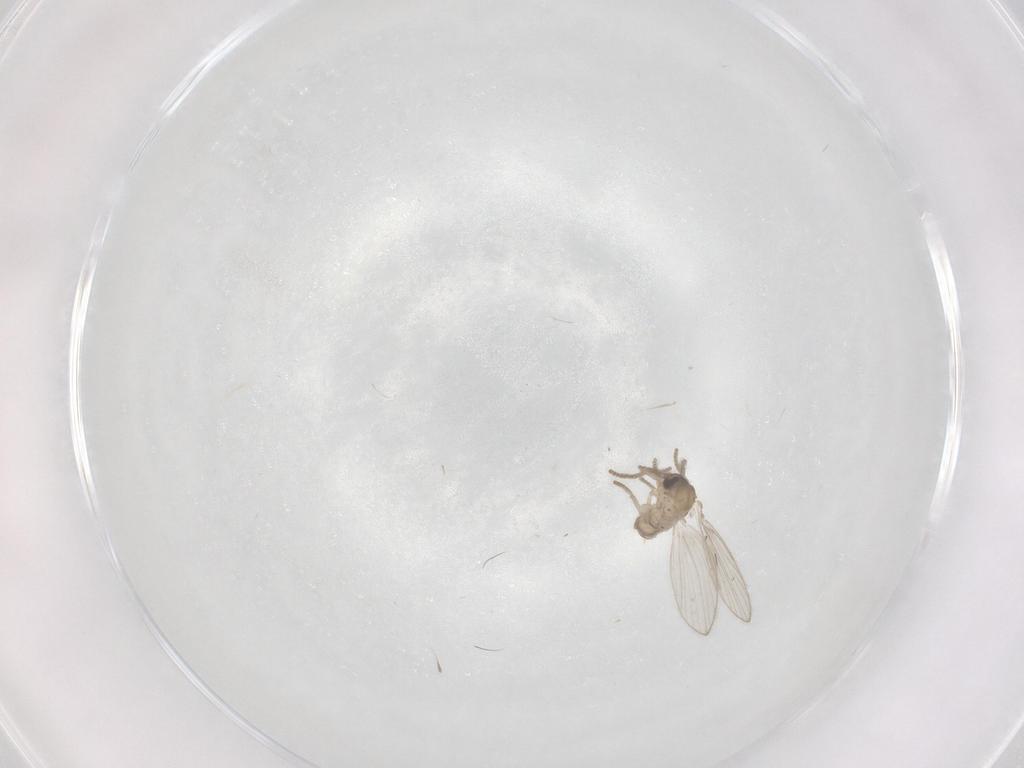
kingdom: Animalia
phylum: Arthropoda
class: Insecta
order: Diptera
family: Psychodidae
